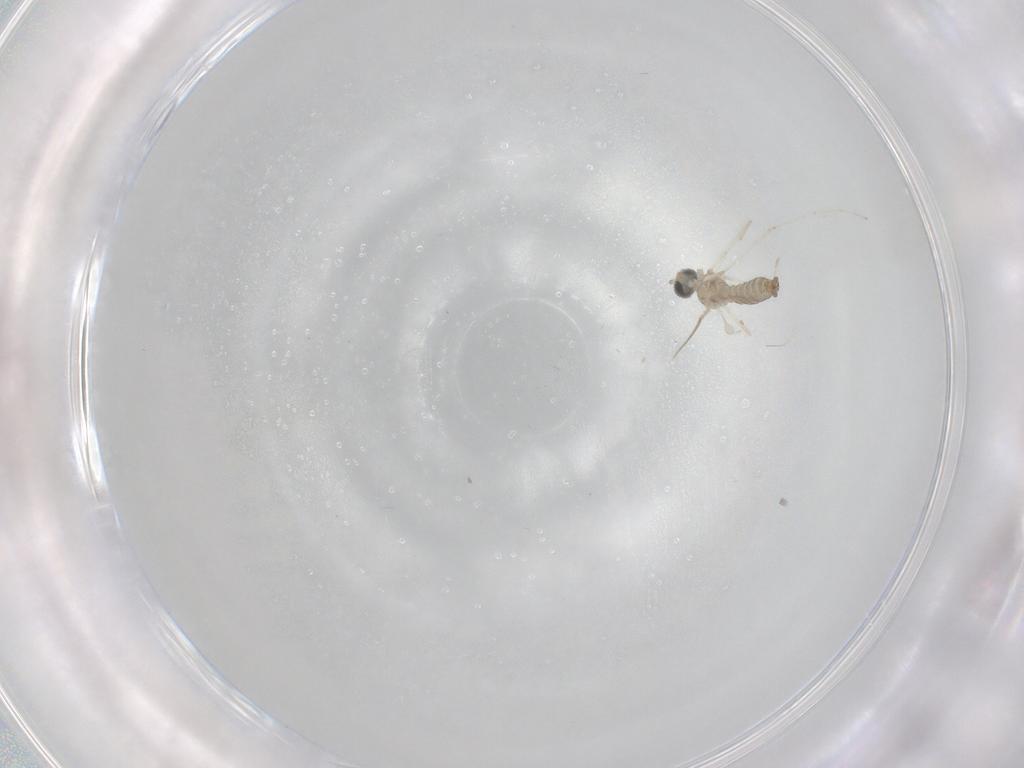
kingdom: Animalia
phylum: Arthropoda
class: Insecta
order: Diptera
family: Cecidomyiidae
